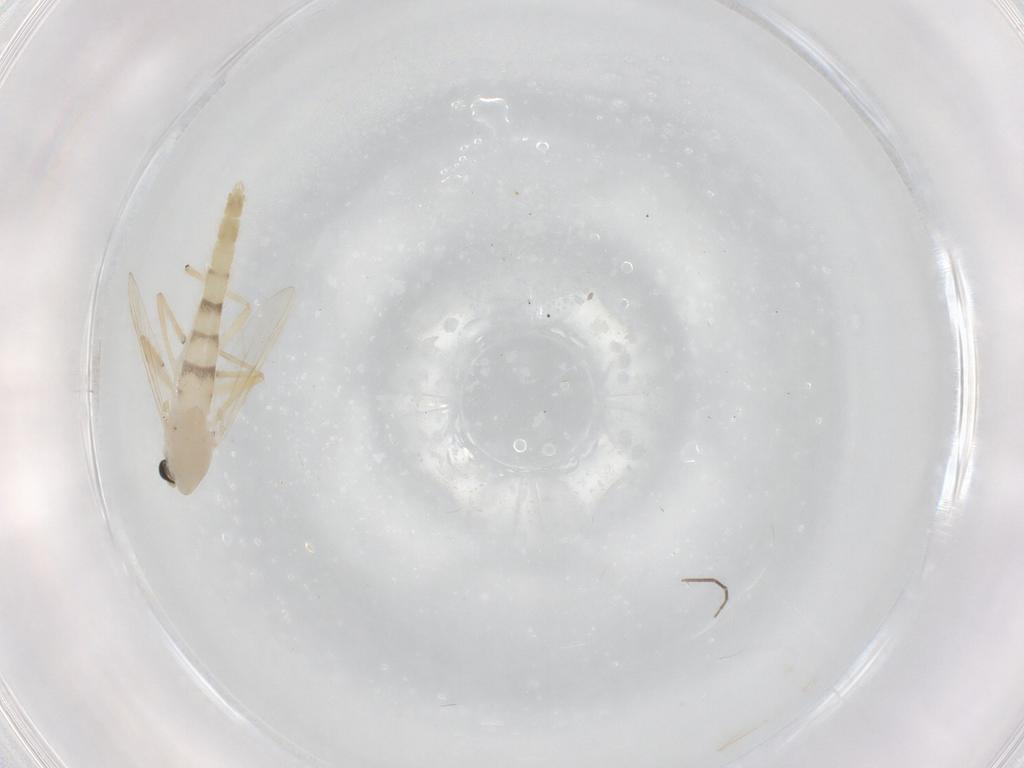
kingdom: Animalia
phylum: Arthropoda
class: Insecta
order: Diptera
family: Chironomidae
